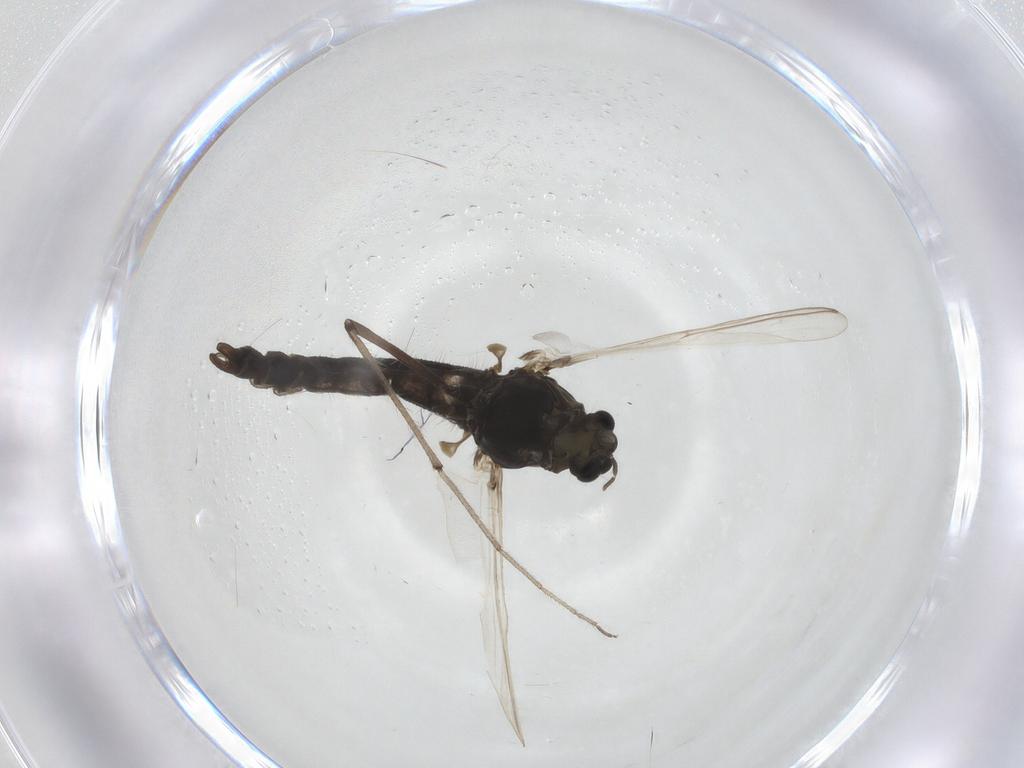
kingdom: Animalia
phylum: Arthropoda
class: Insecta
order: Diptera
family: Chironomidae
